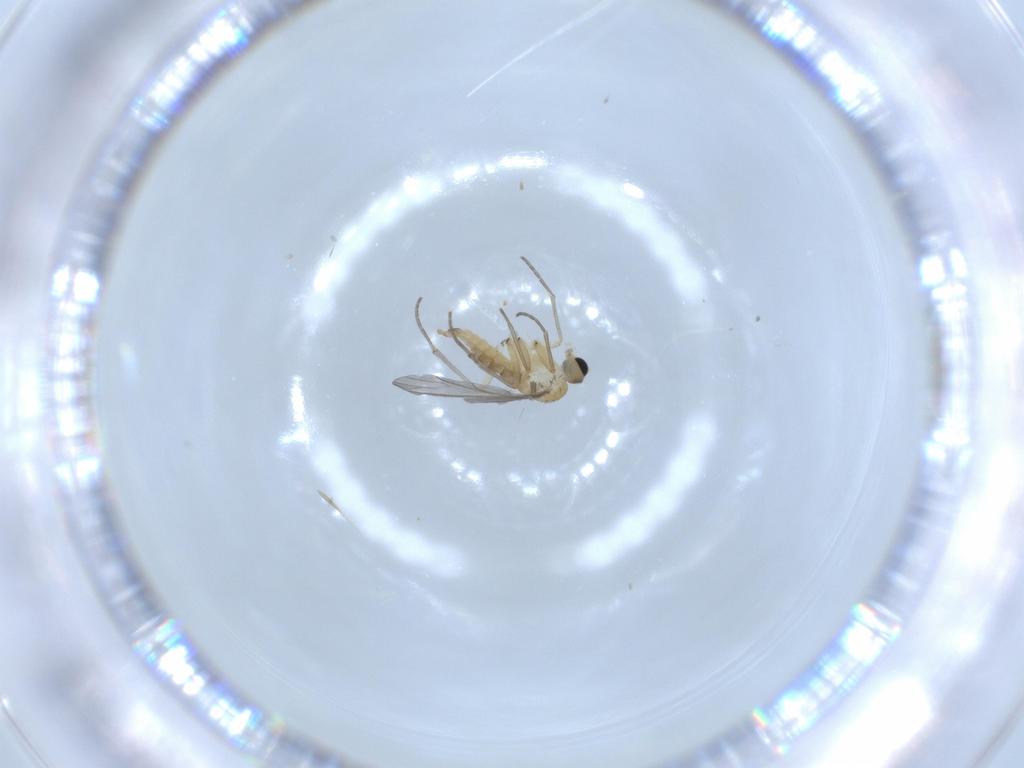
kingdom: Animalia
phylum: Arthropoda
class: Insecta
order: Diptera
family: Sciaridae
